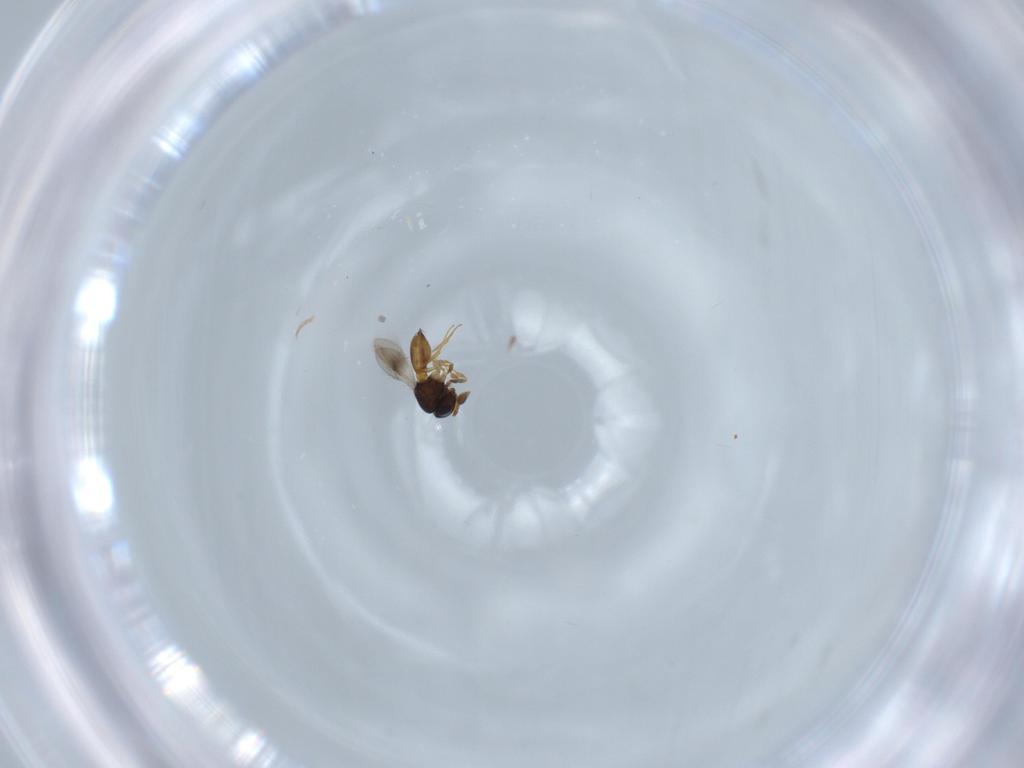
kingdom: Animalia
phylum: Arthropoda
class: Insecta
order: Hymenoptera
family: Scelionidae
